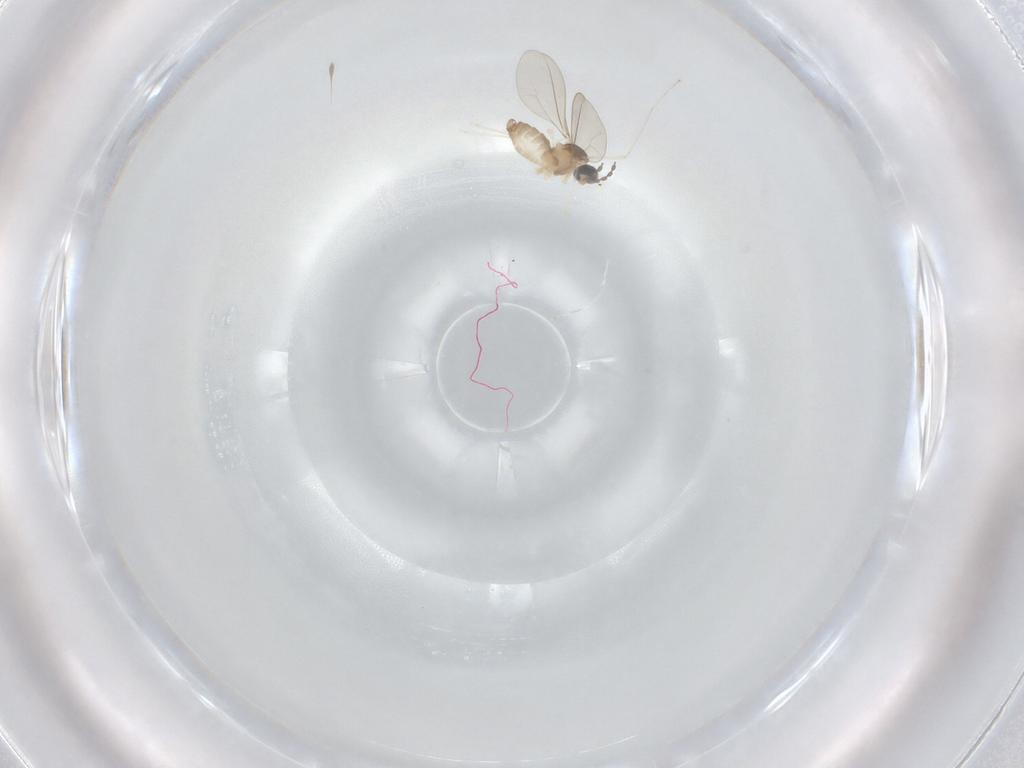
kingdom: Animalia
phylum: Arthropoda
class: Insecta
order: Diptera
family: Cecidomyiidae
